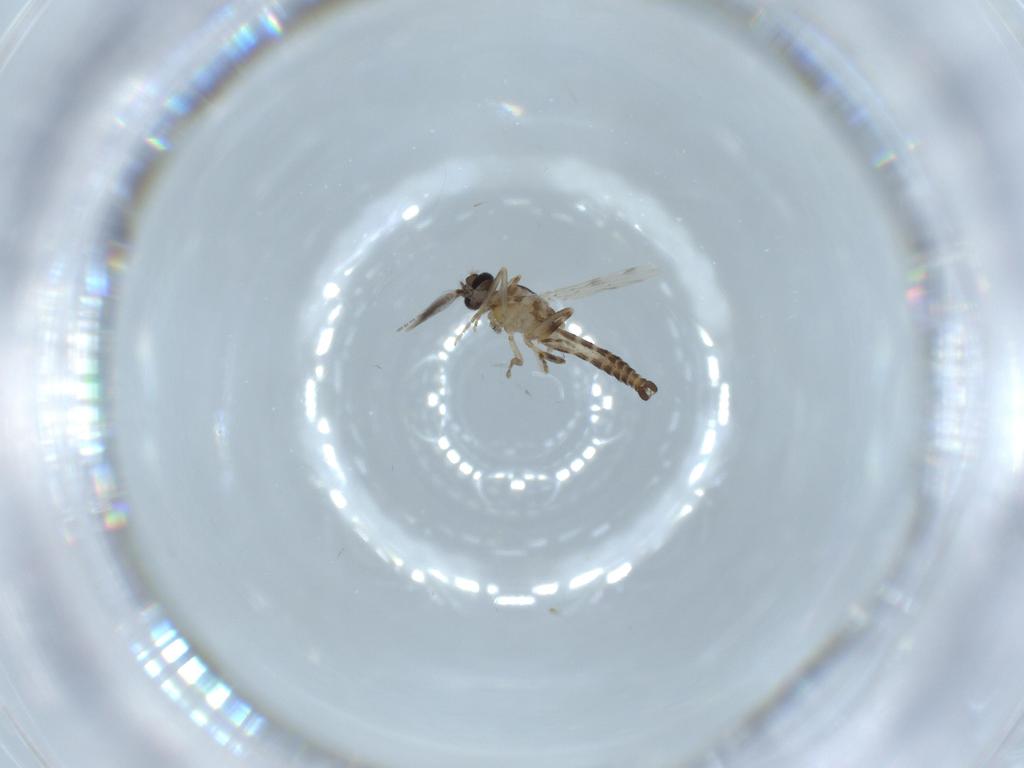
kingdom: Animalia
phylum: Arthropoda
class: Insecta
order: Diptera
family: Ceratopogonidae
